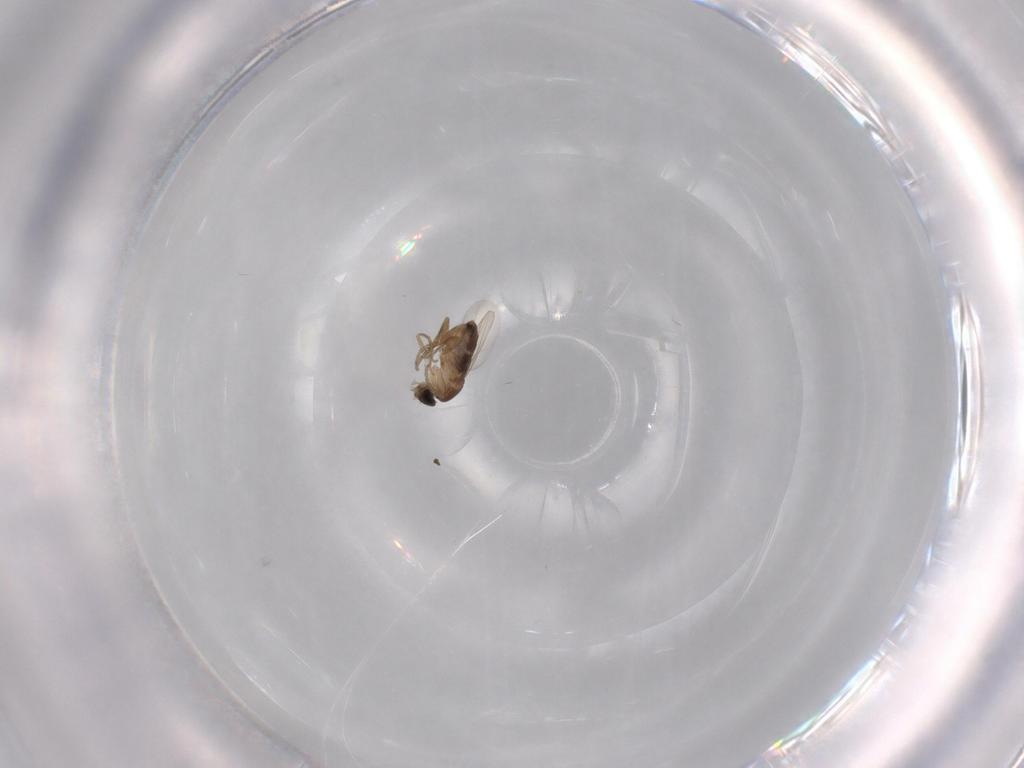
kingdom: Animalia
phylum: Arthropoda
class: Insecta
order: Diptera
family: Phoridae
